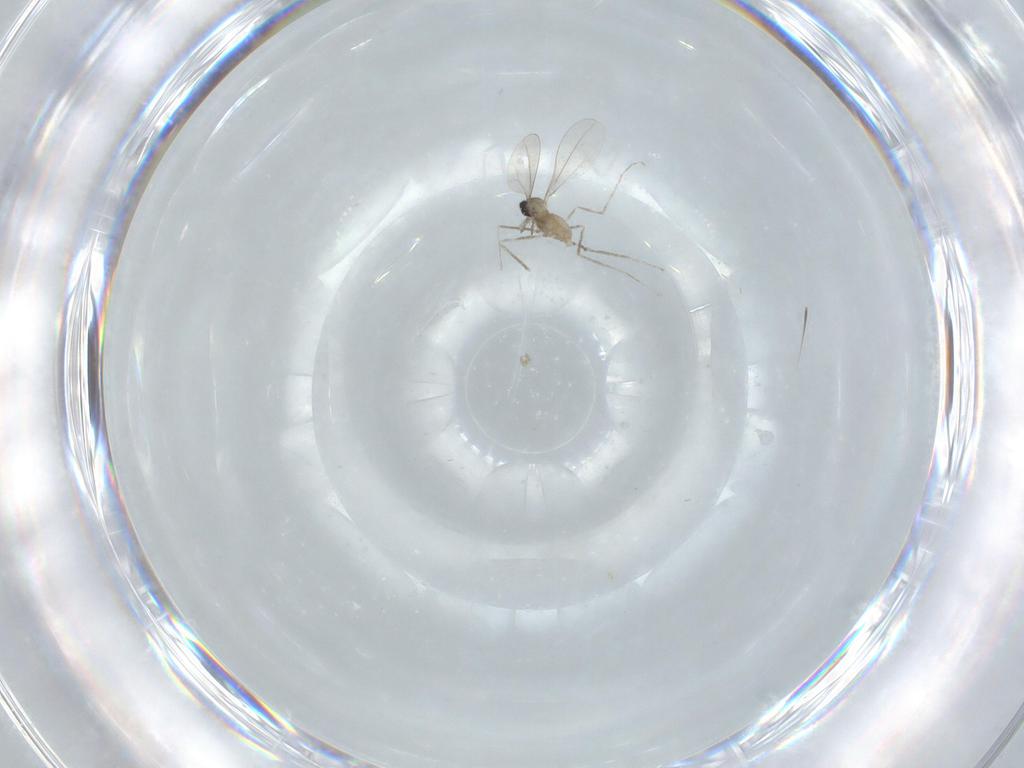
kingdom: Animalia
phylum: Arthropoda
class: Insecta
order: Diptera
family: Cecidomyiidae
